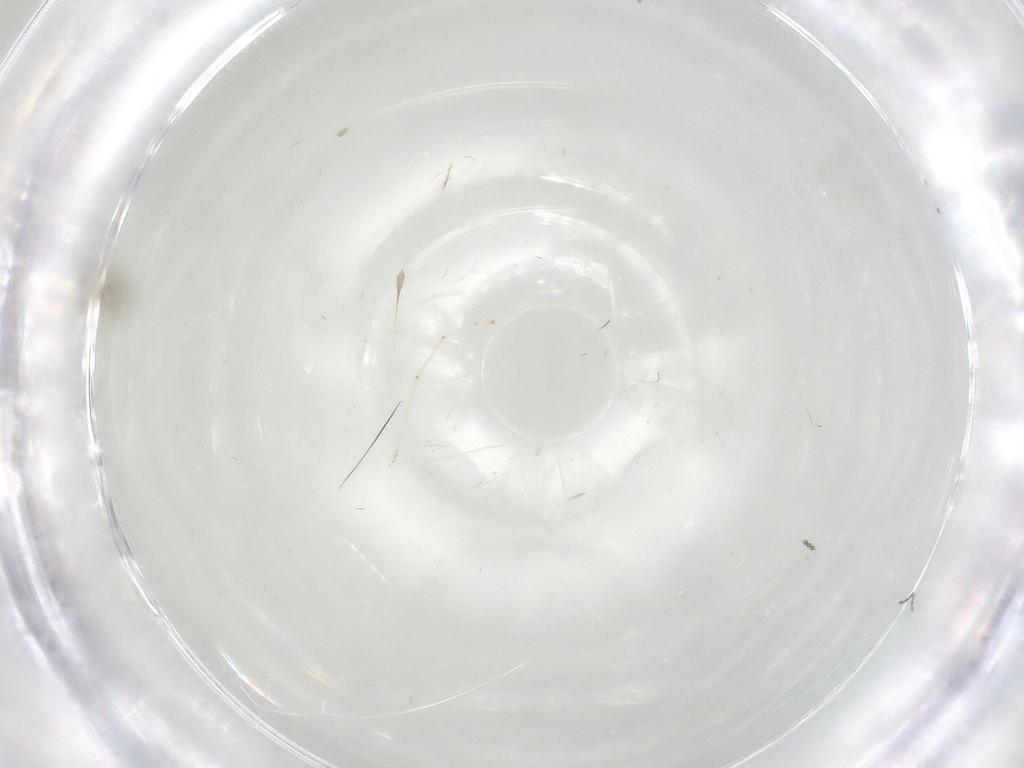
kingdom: Animalia
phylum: Arthropoda
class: Insecta
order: Diptera
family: Cecidomyiidae
